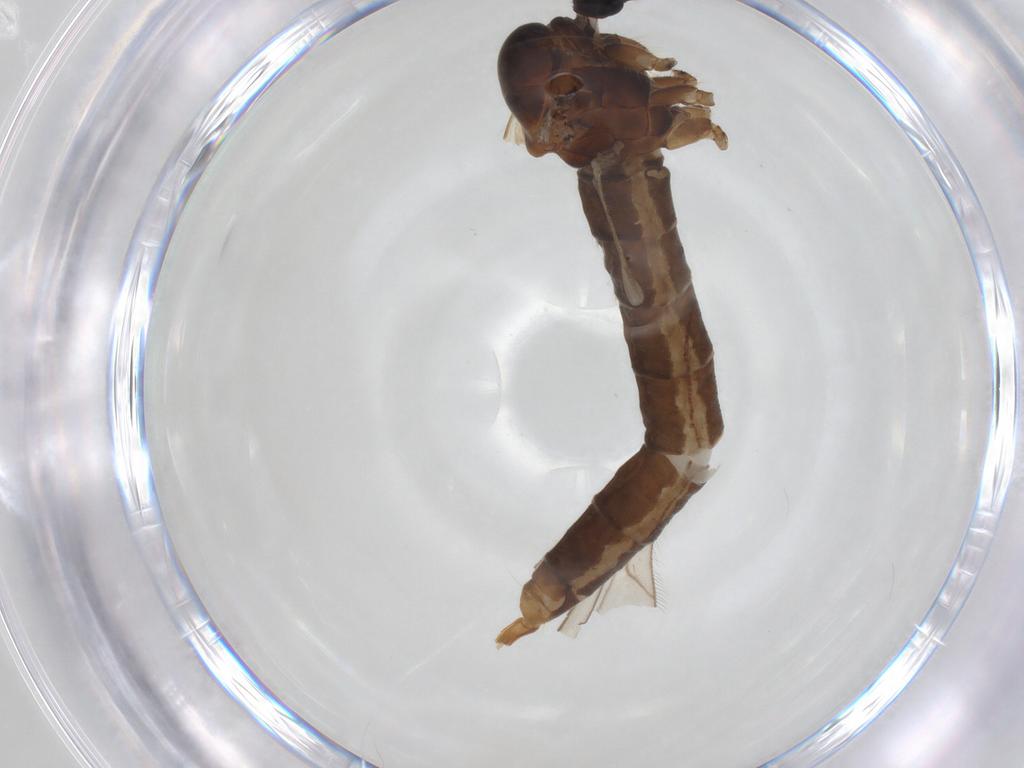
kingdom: Animalia
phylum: Arthropoda
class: Insecta
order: Diptera
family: Trichoceridae
